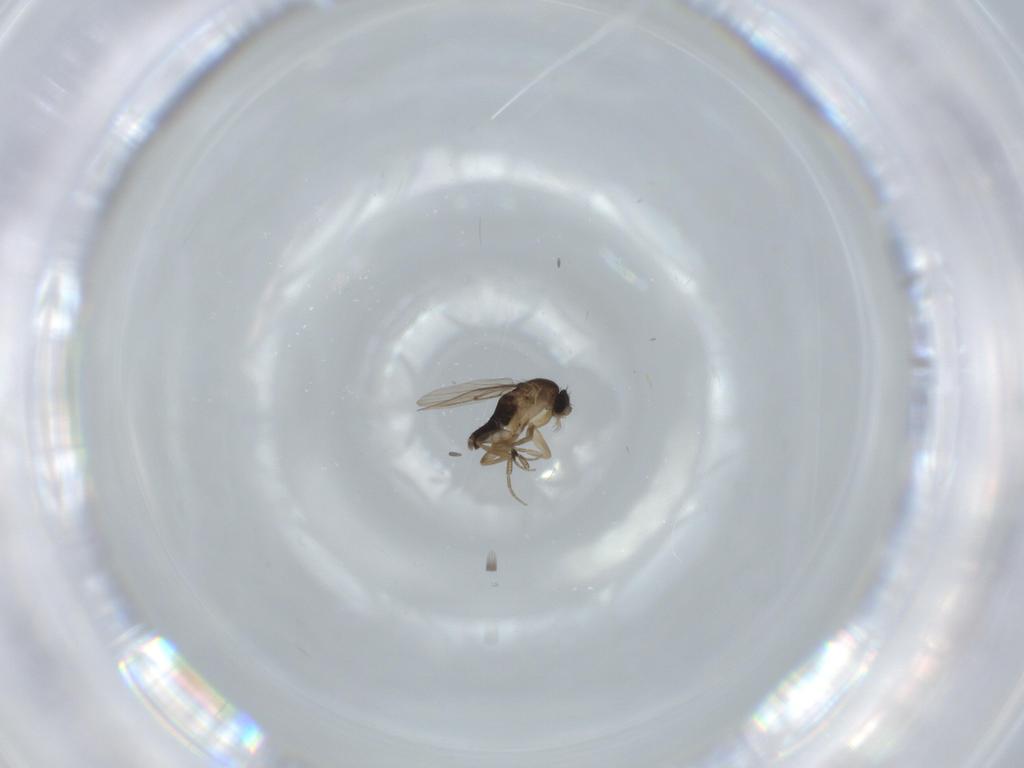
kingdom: Animalia
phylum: Arthropoda
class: Insecta
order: Diptera
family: Phoridae
